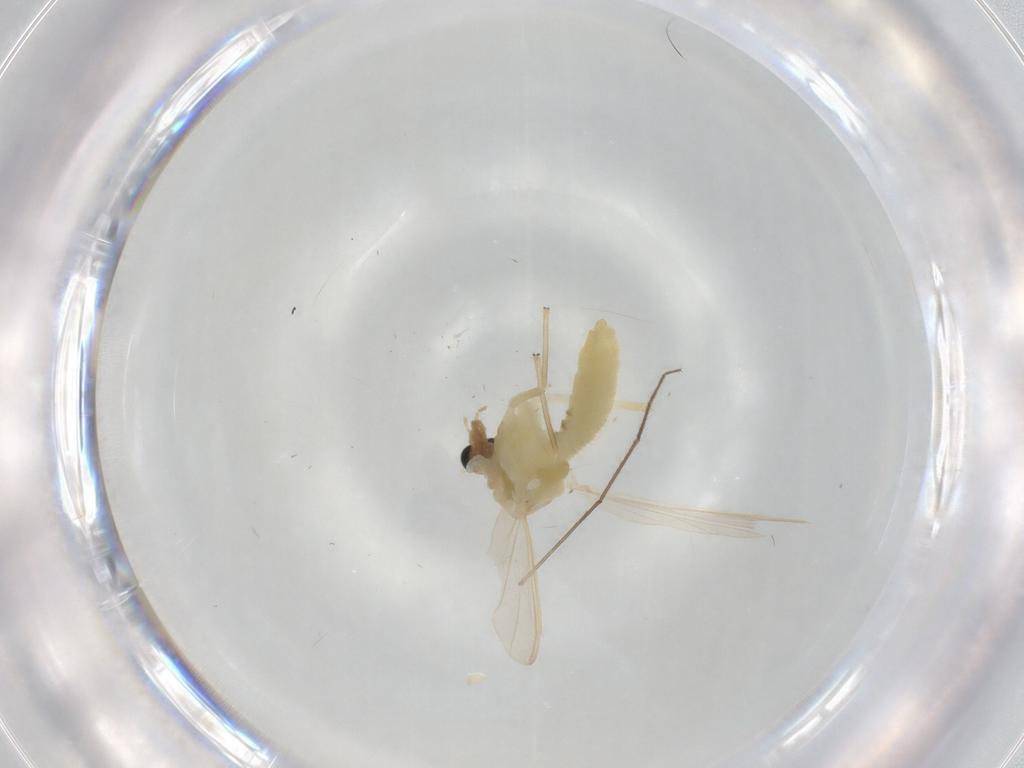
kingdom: Animalia
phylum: Arthropoda
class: Insecta
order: Diptera
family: Chironomidae
